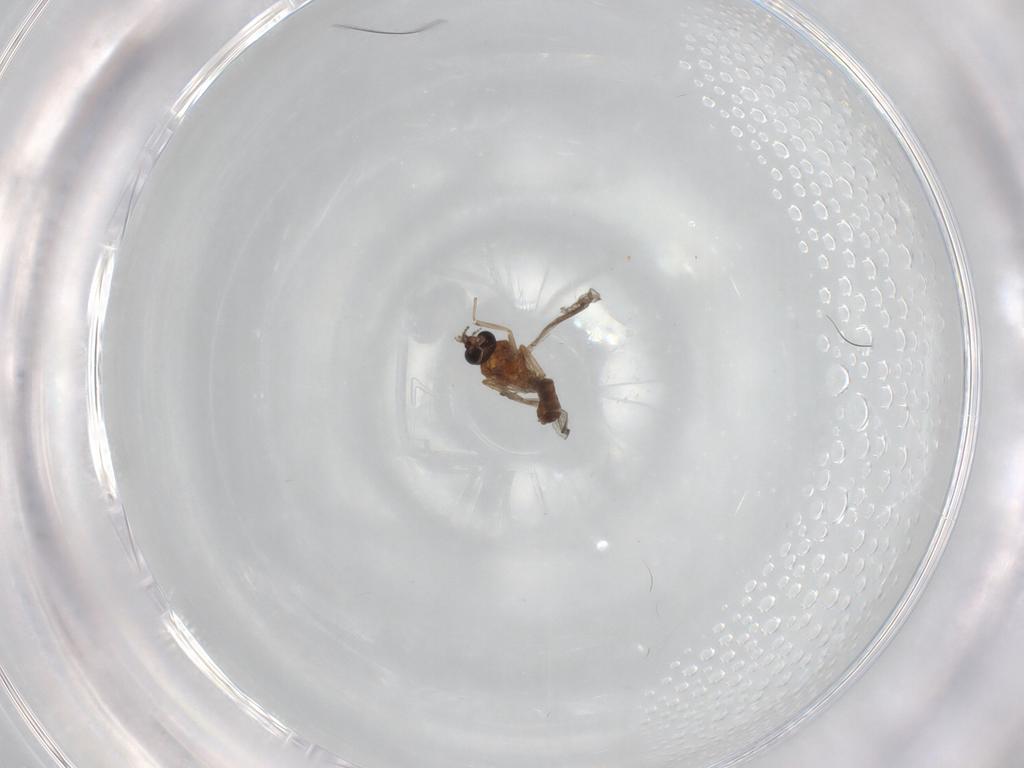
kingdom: Animalia
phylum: Arthropoda
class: Insecta
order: Diptera
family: Ceratopogonidae
